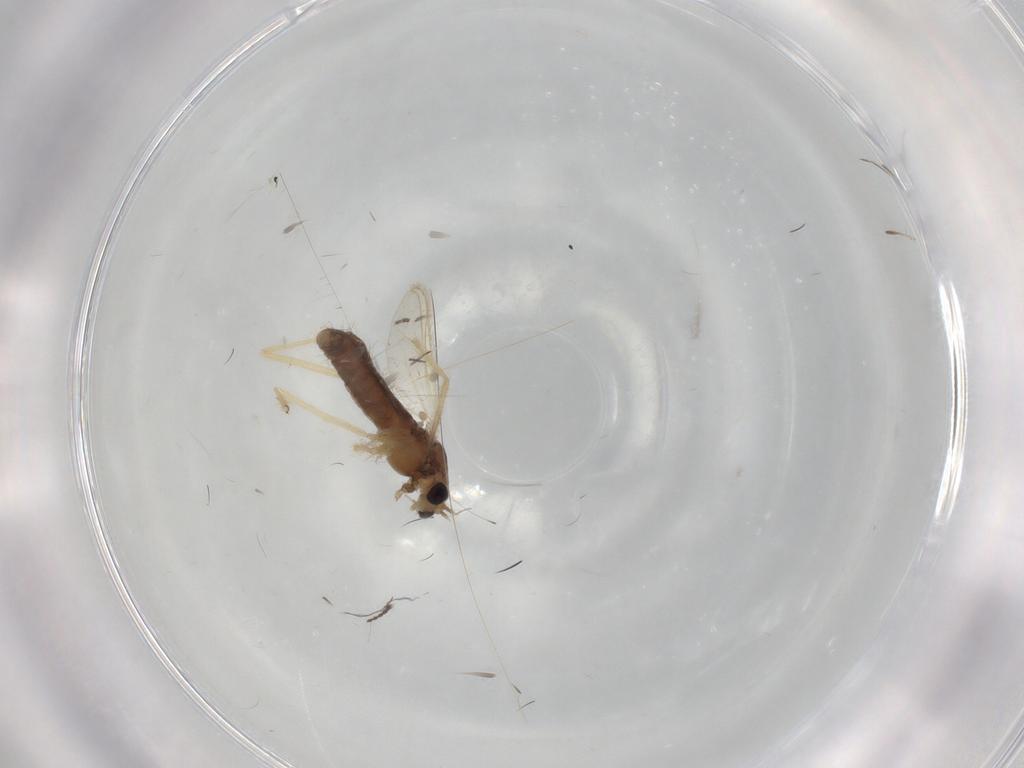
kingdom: Animalia
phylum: Arthropoda
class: Insecta
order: Diptera
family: Chironomidae
